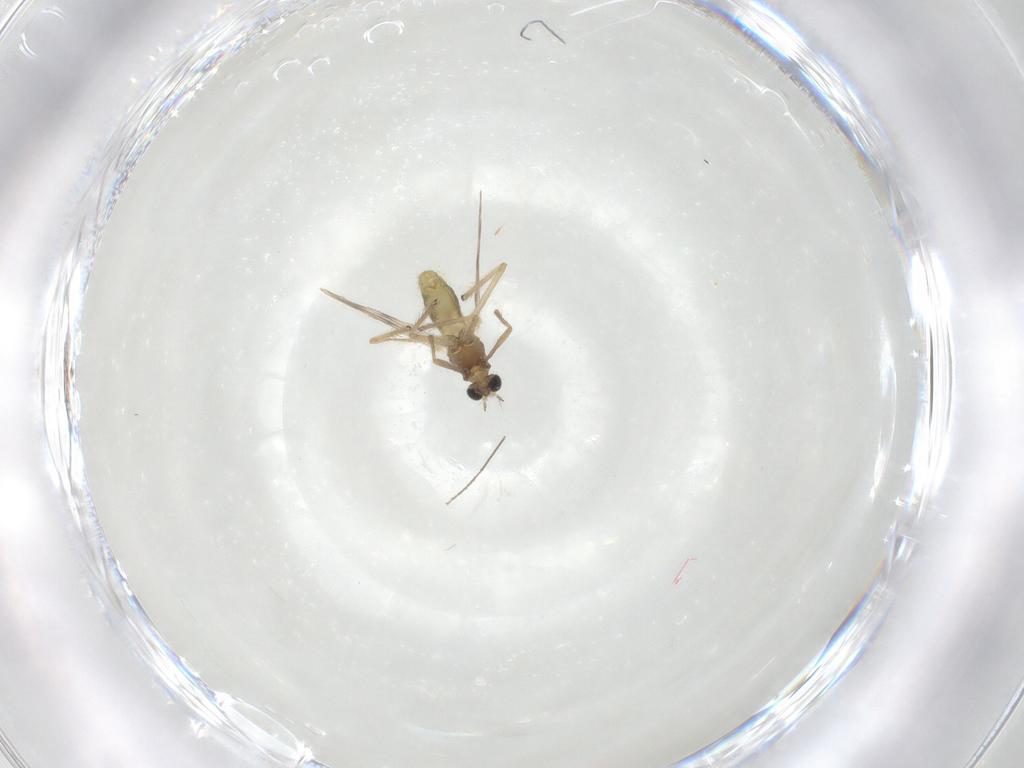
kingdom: Animalia
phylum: Arthropoda
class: Insecta
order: Diptera
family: Chironomidae
